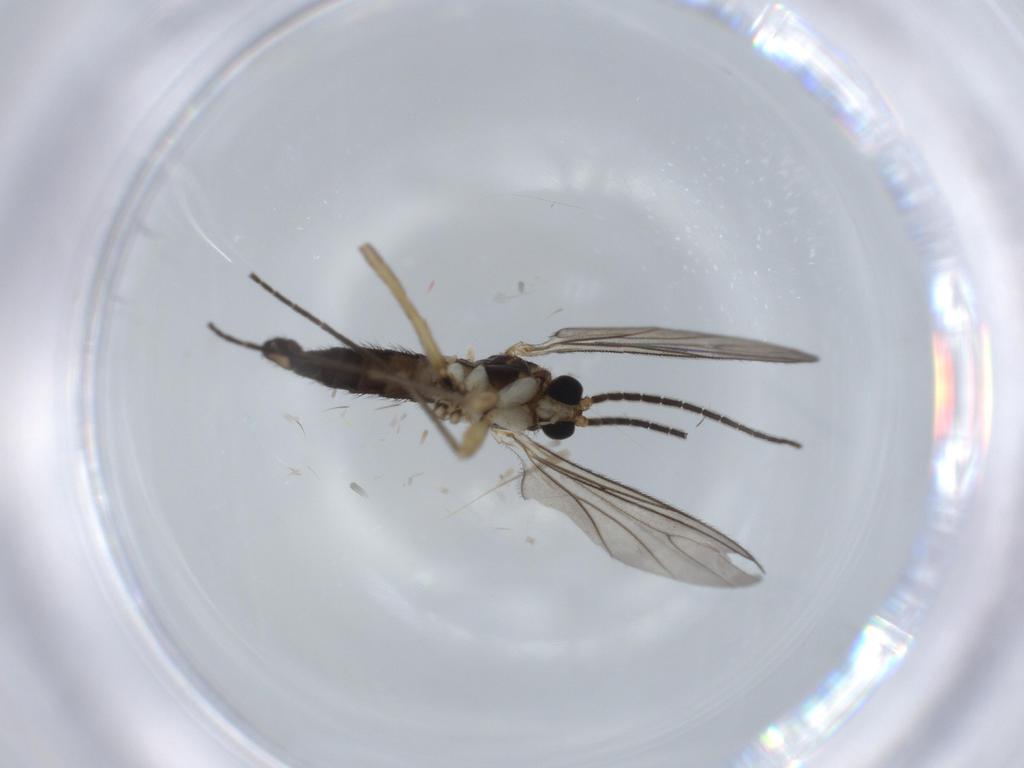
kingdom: Animalia
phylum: Arthropoda
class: Insecta
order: Diptera
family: Sciaridae
